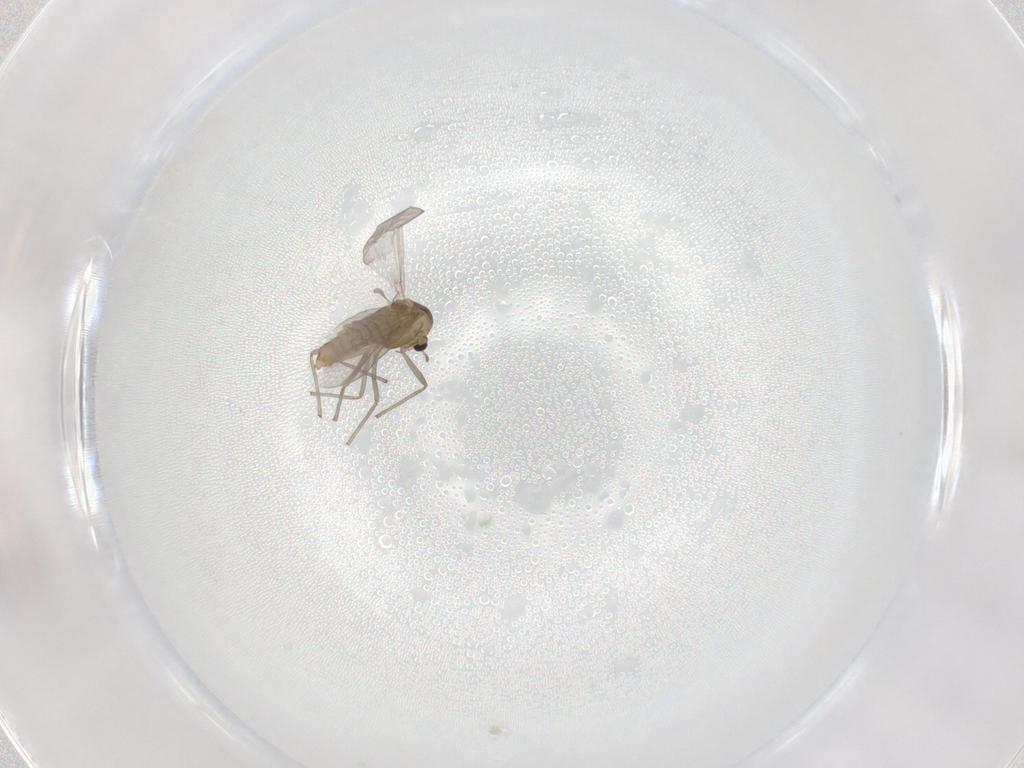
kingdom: Animalia
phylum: Arthropoda
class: Insecta
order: Diptera
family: Chironomidae
